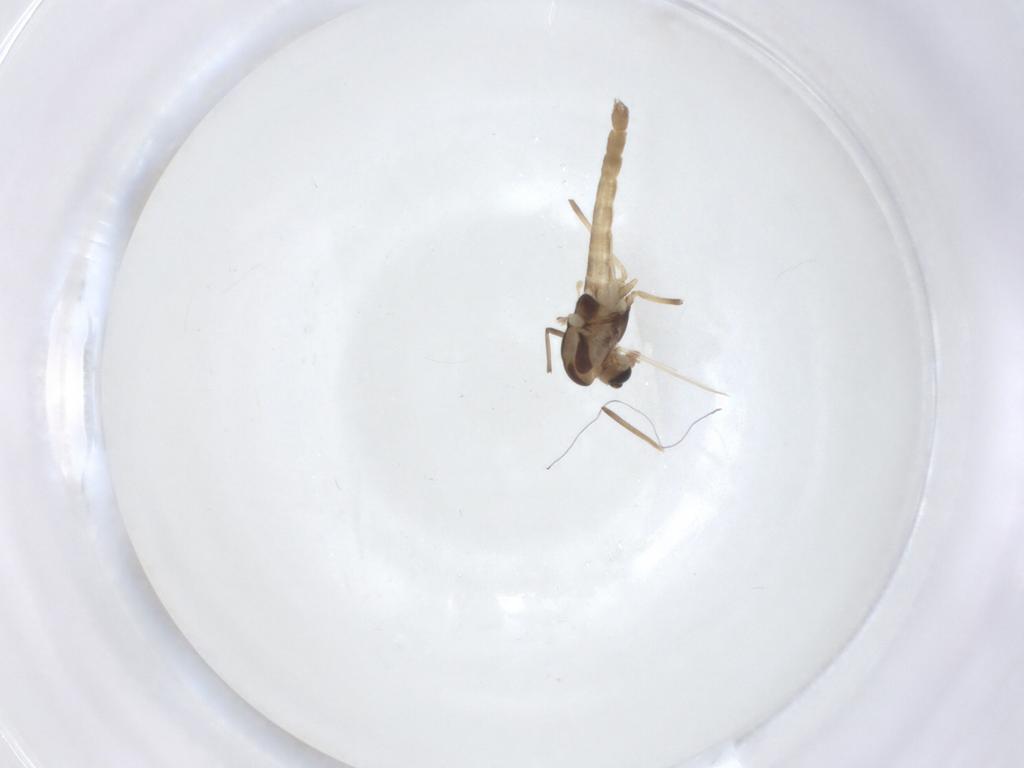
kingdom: Animalia
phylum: Arthropoda
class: Insecta
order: Diptera
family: Chironomidae
